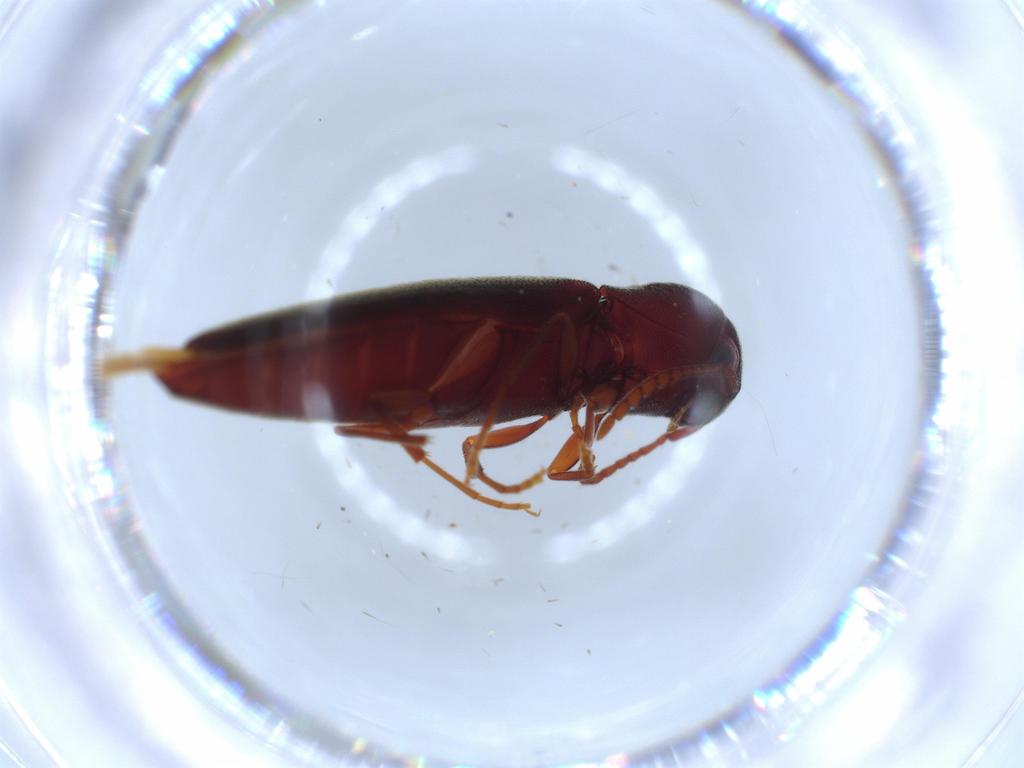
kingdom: Animalia
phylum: Arthropoda
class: Insecta
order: Coleoptera
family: Eucnemidae
